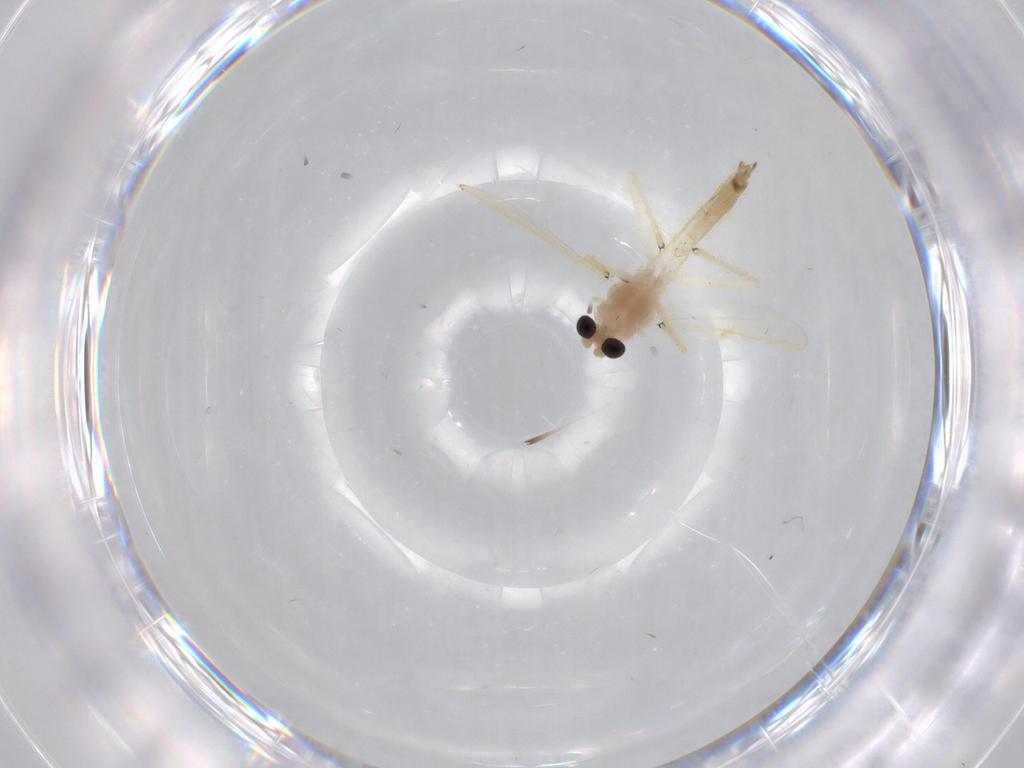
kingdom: Animalia
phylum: Arthropoda
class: Insecta
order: Diptera
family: Chironomidae
